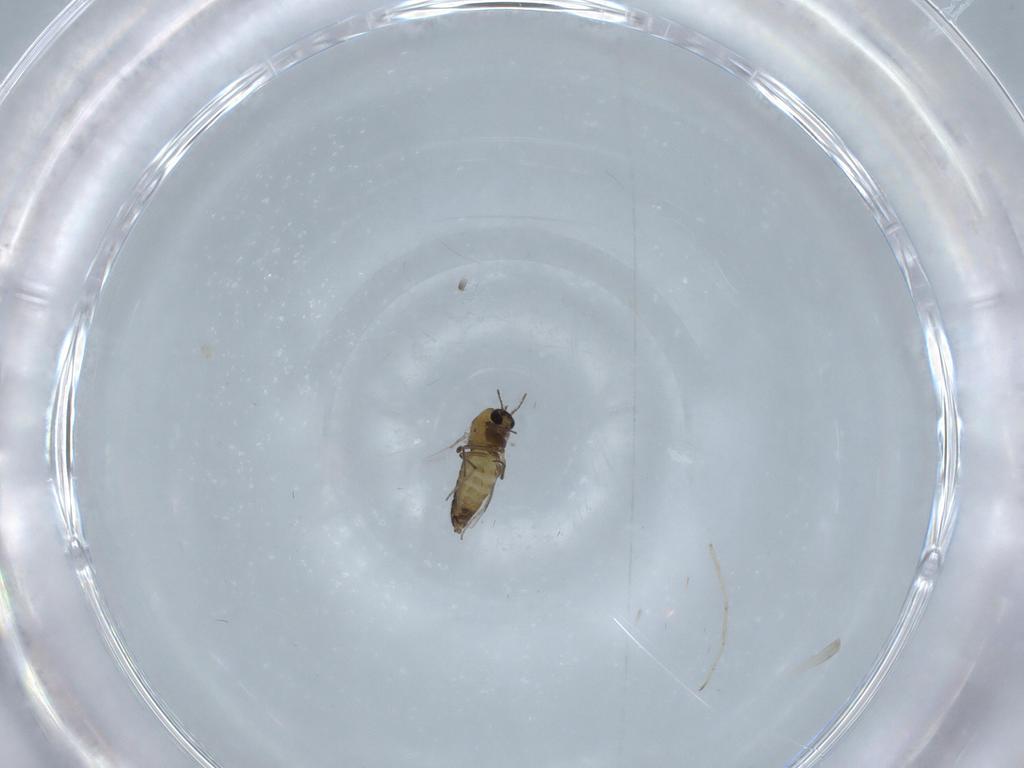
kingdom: Animalia
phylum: Arthropoda
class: Insecta
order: Diptera
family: Chironomidae
